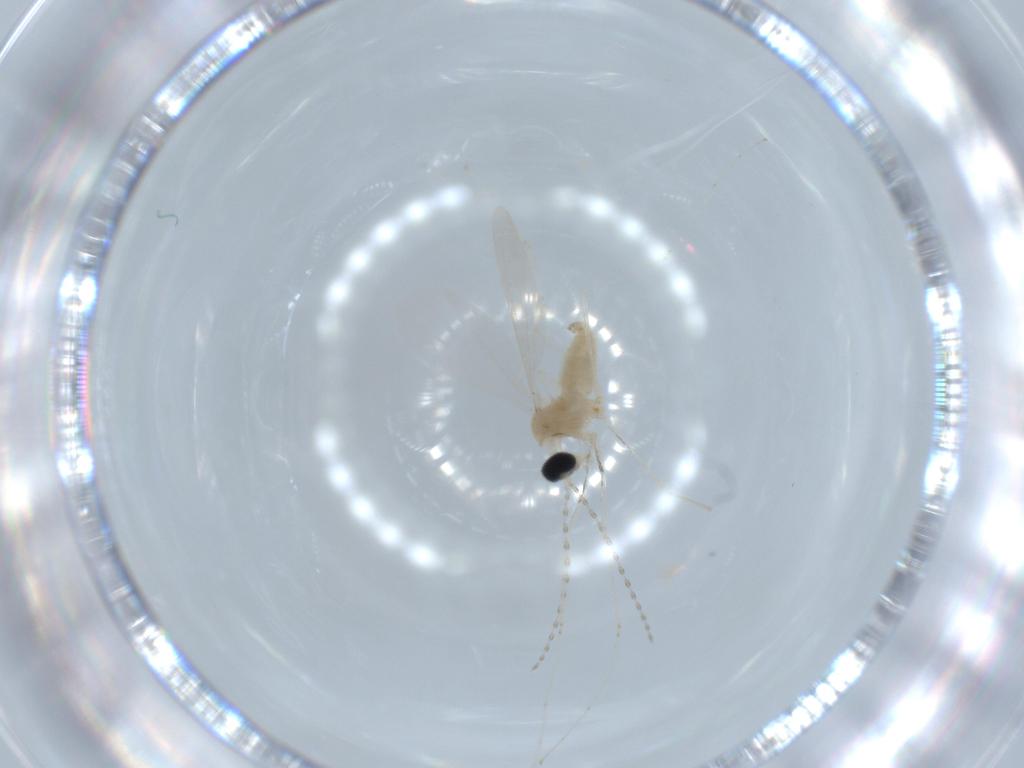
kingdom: Animalia
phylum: Arthropoda
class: Insecta
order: Diptera
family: Cecidomyiidae
